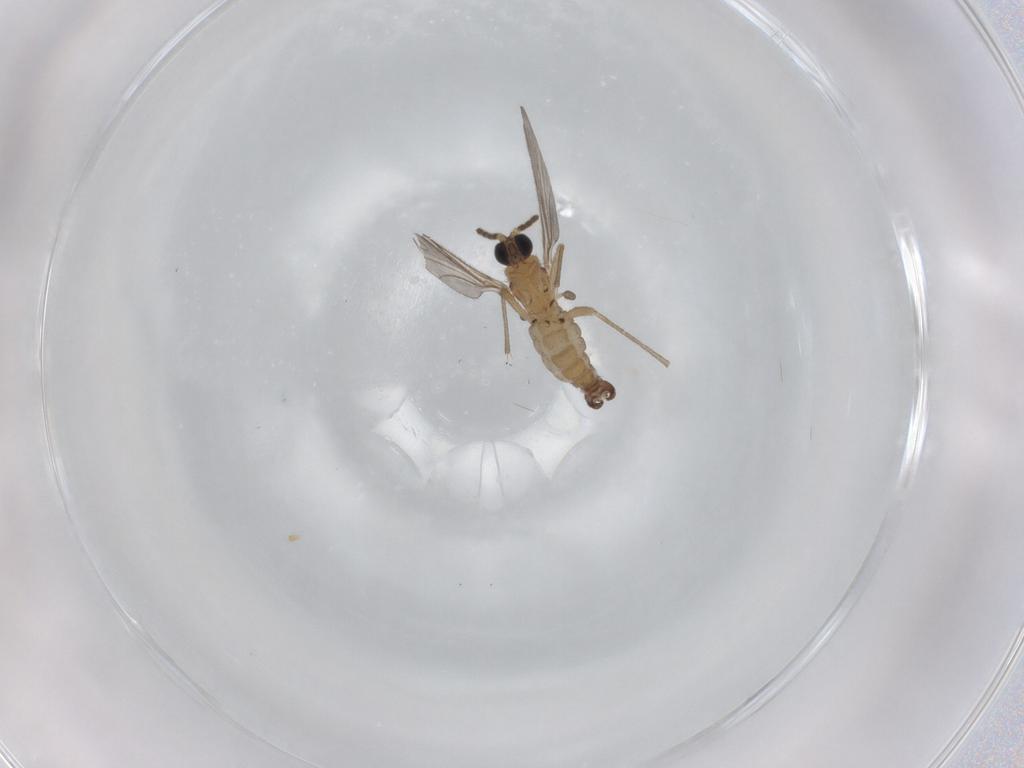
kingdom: Animalia
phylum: Arthropoda
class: Insecta
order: Diptera
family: Sciaridae
